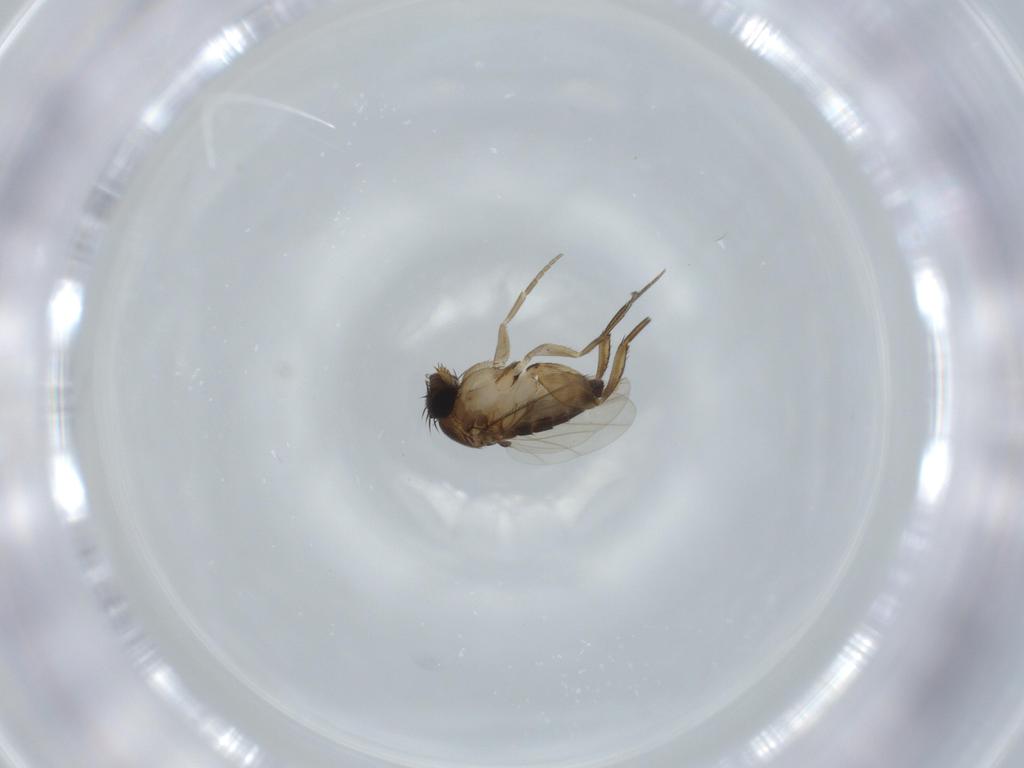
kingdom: Animalia
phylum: Arthropoda
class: Insecta
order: Diptera
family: Phoridae
